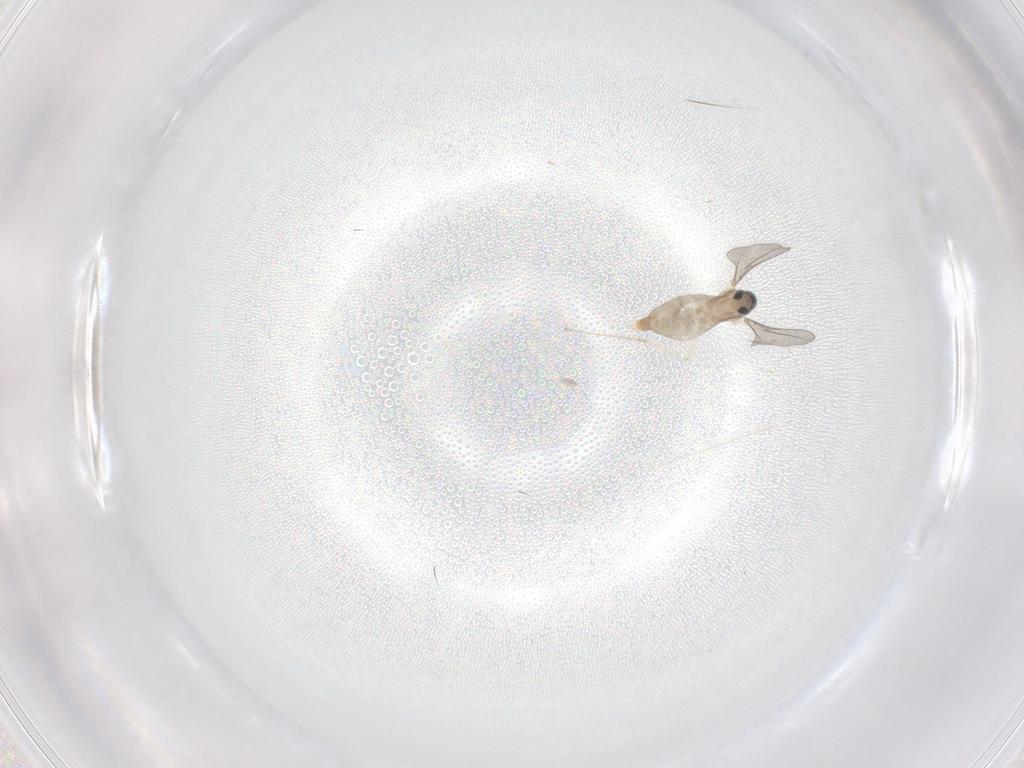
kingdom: Animalia
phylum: Arthropoda
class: Insecta
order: Diptera
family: Cecidomyiidae
